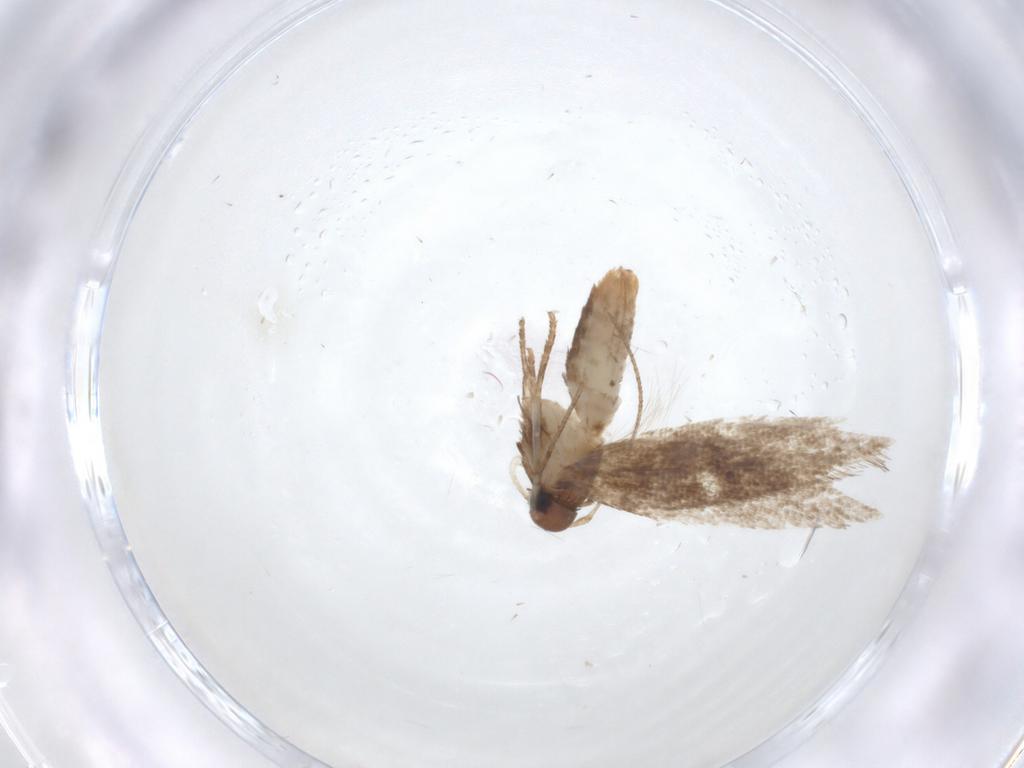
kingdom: Animalia
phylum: Arthropoda
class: Insecta
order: Lepidoptera
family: Gelechiidae
